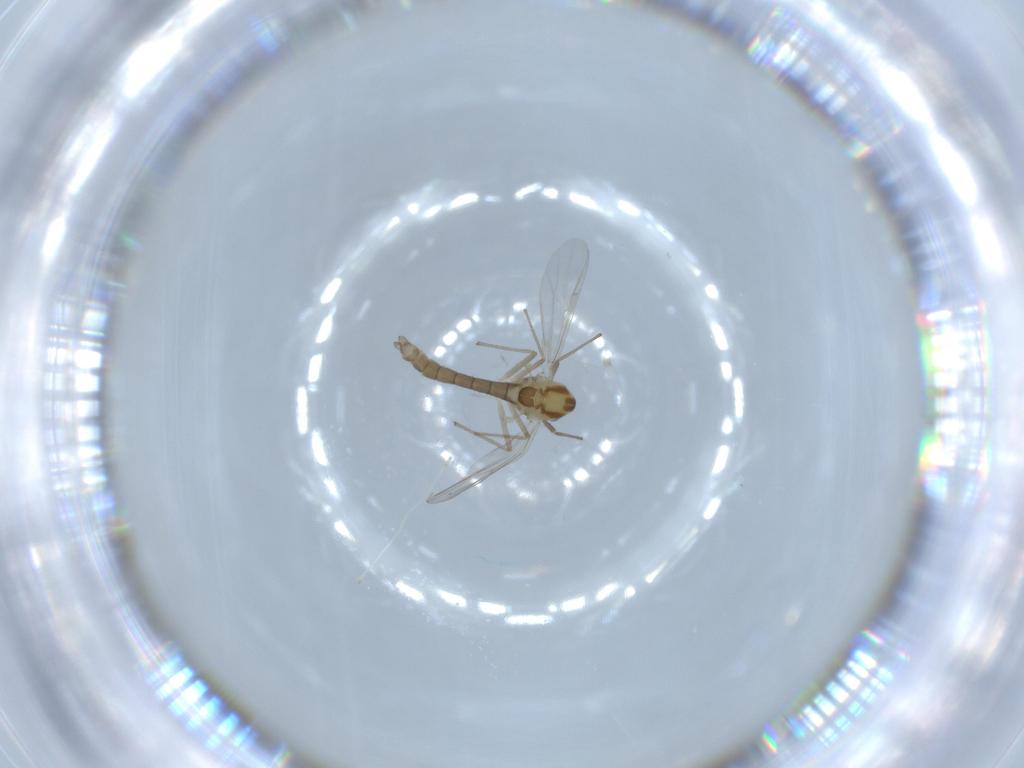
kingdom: Animalia
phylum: Arthropoda
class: Insecta
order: Diptera
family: Chironomidae
